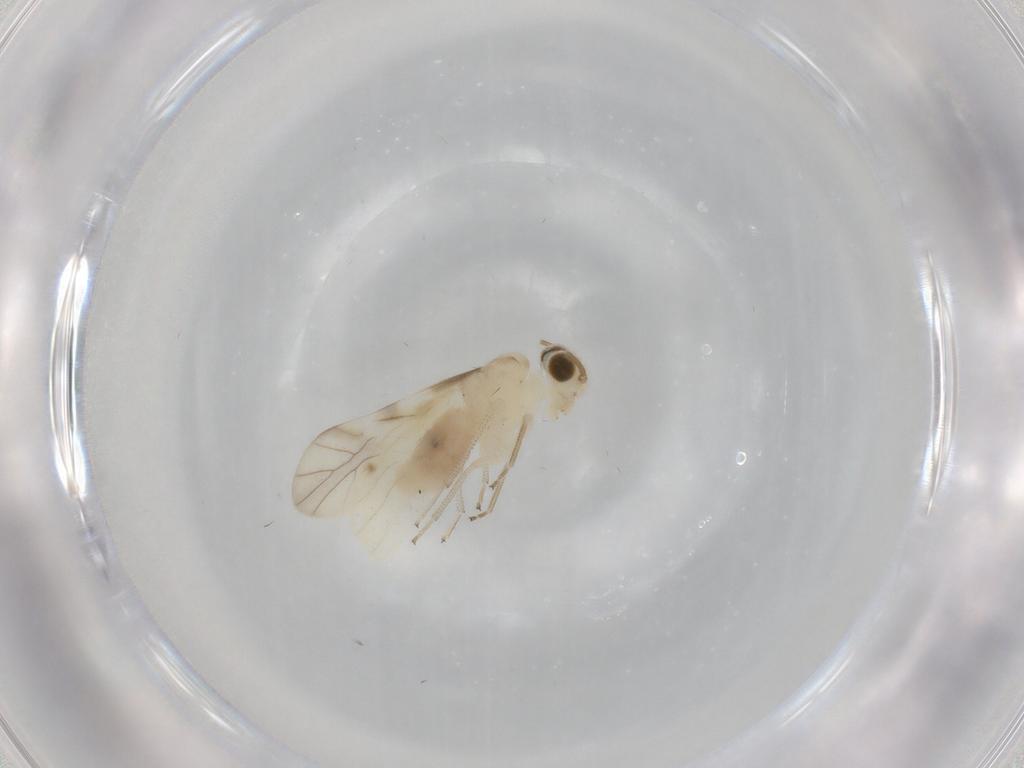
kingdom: Animalia
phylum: Arthropoda
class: Insecta
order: Psocodea
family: Caeciliusidae
